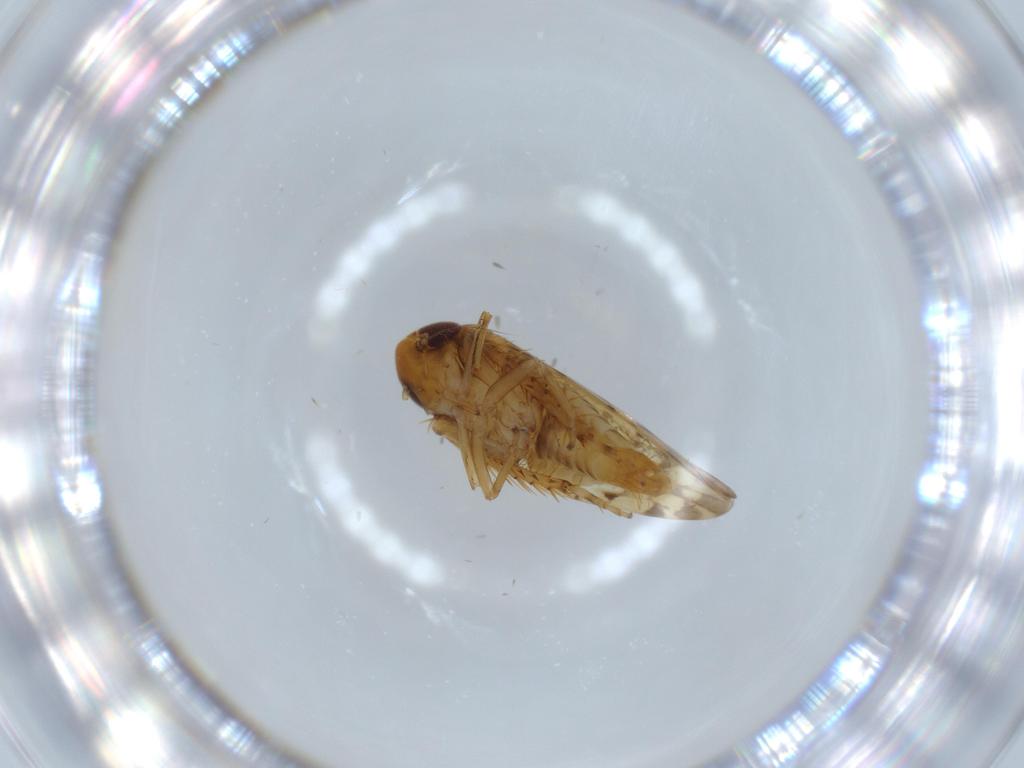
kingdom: Animalia
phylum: Arthropoda
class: Insecta
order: Hemiptera
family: Cicadellidae
